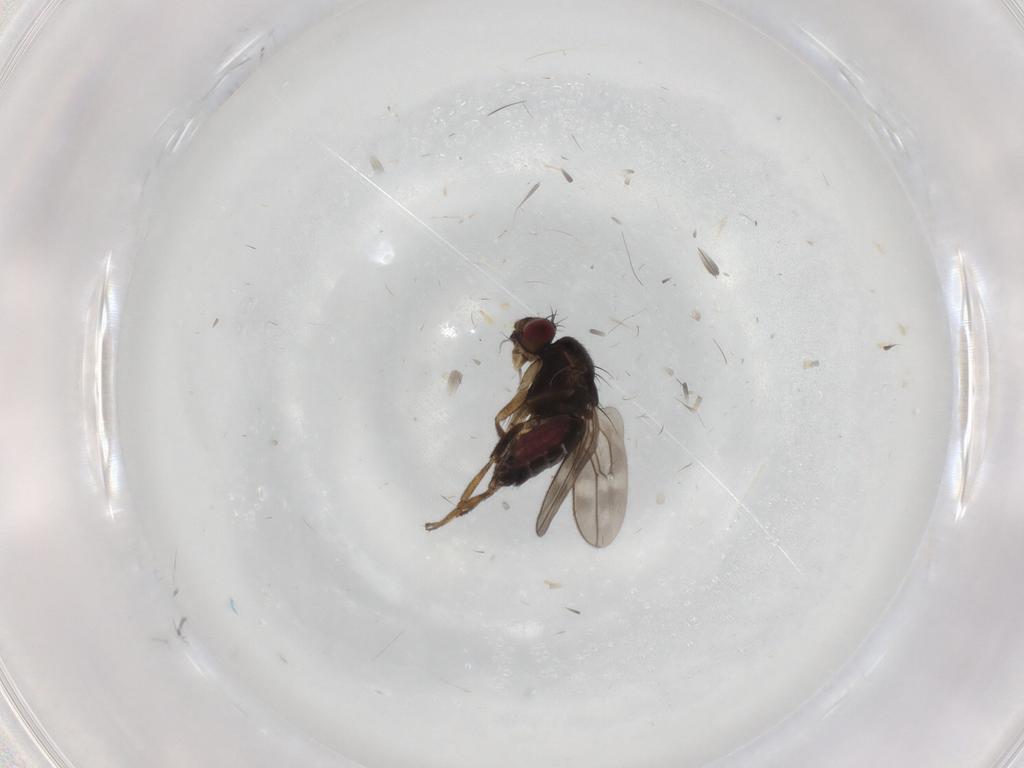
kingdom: Animalia
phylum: Arthropoda
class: Insecta
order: Diptera
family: Sphaeroceridae
